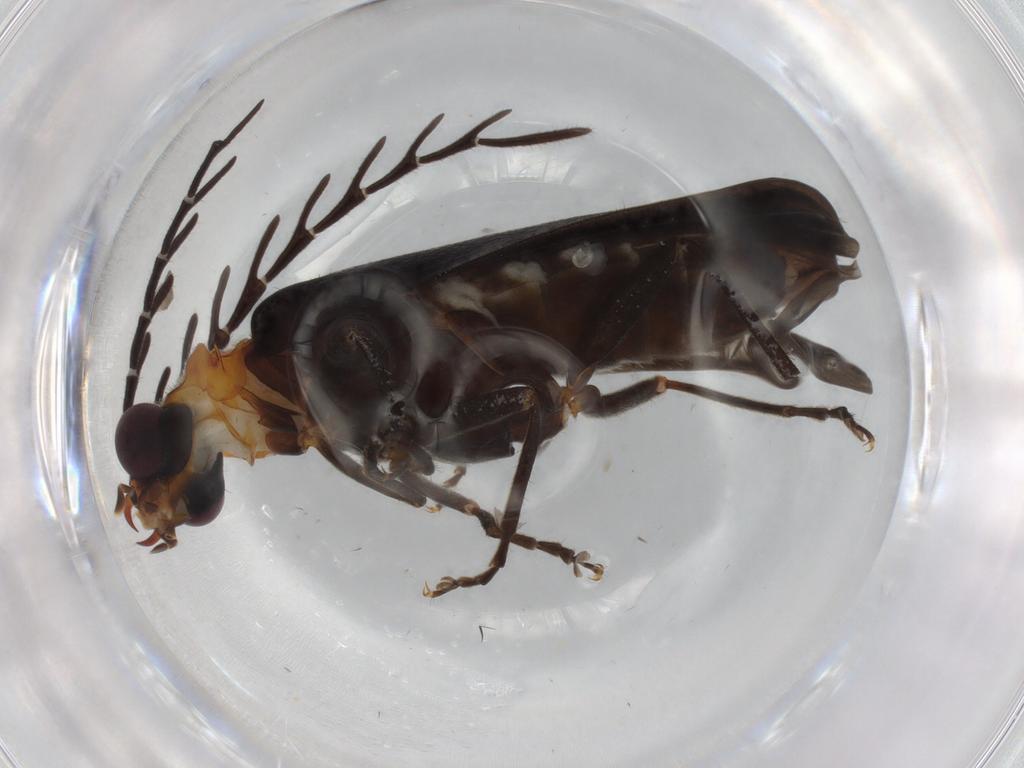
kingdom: Animalia
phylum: Arthropoda
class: Insecta
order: Coleoptera
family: Cantharidae
